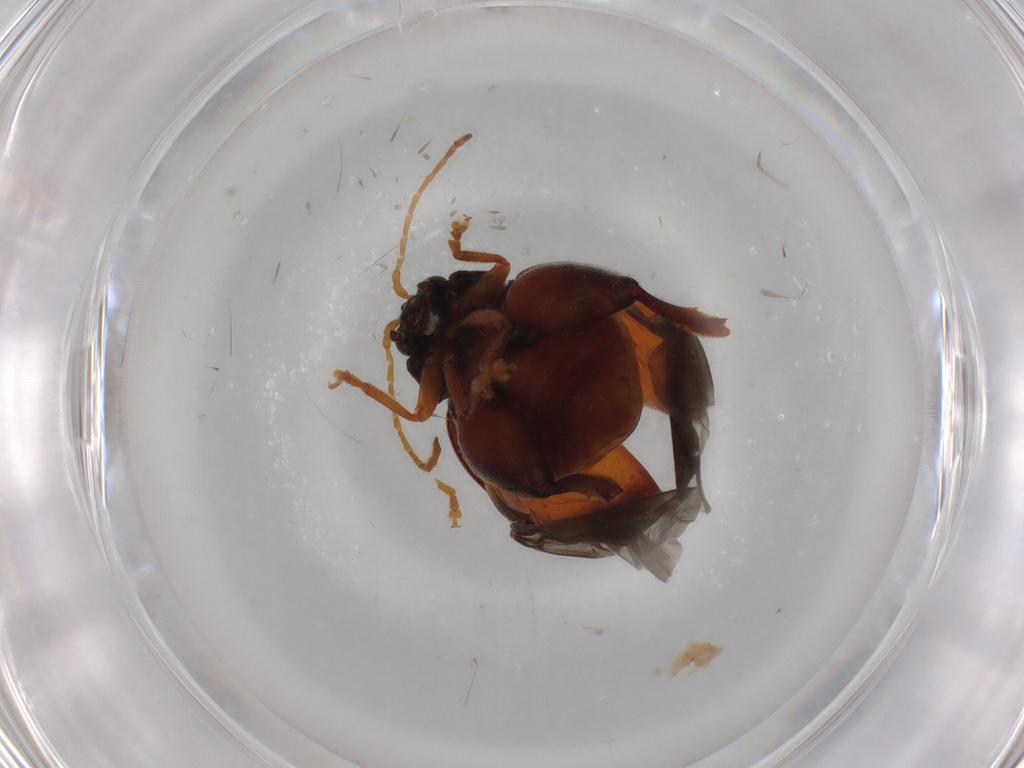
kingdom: Animalia
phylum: Arthropoda
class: Insecta
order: Coleoptera
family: Chrysomelidae
